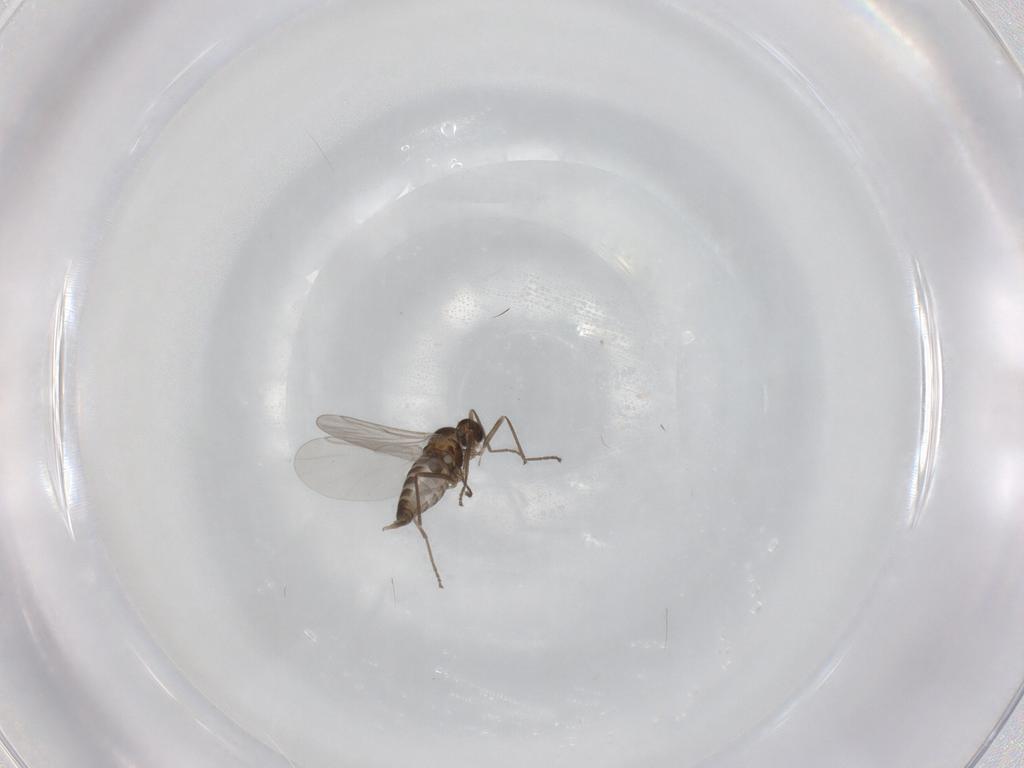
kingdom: Animalia
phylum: Arthropoda
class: Insecta
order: Diptera
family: Cecidomyiidae
